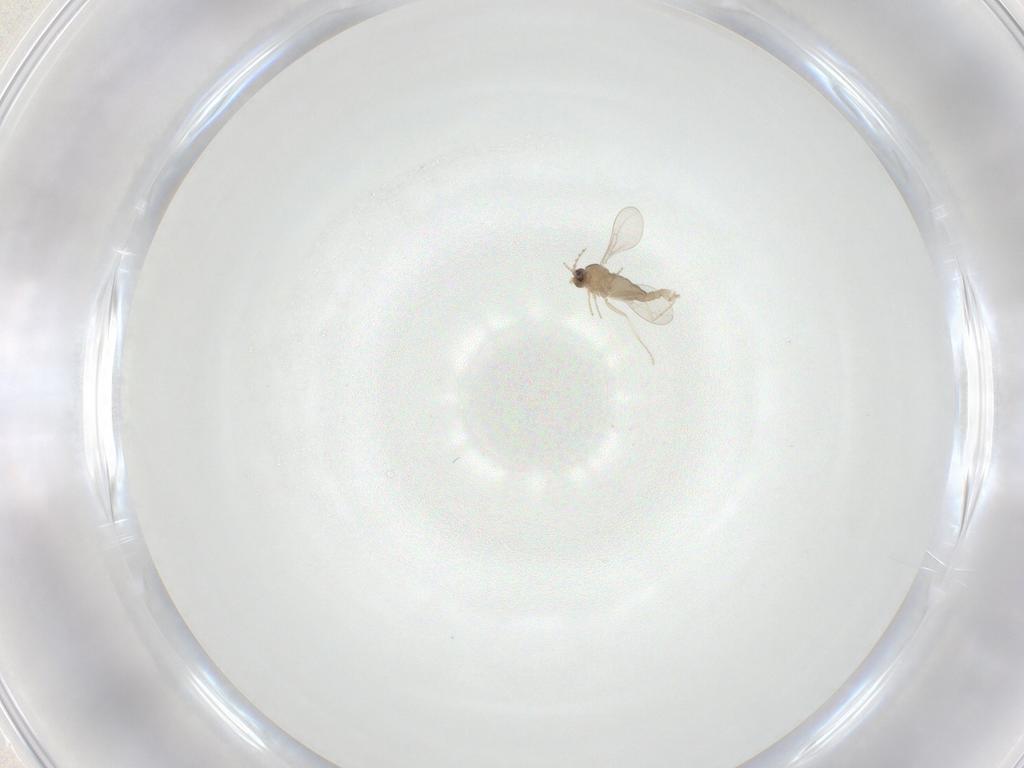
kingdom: Animalia
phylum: Arthropoda
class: Insecta
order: Diptera
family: Cecidomyiidae
